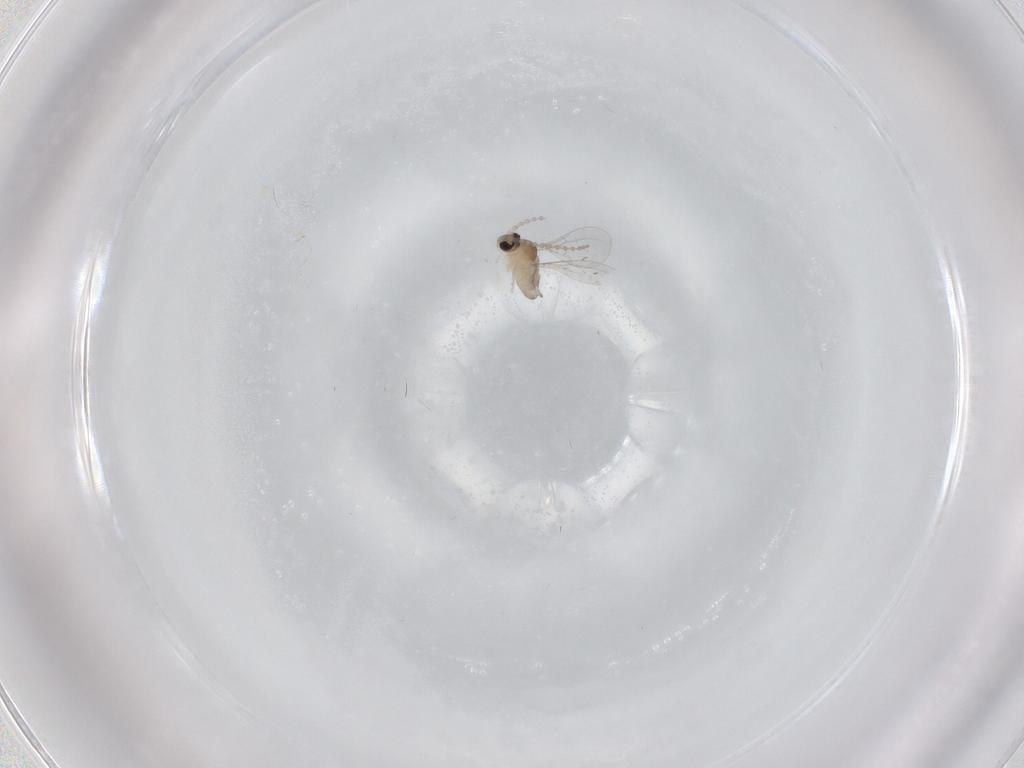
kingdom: Animalia
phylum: Arthropoda
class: Insecta
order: Diptera
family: Cecidomyiidae
